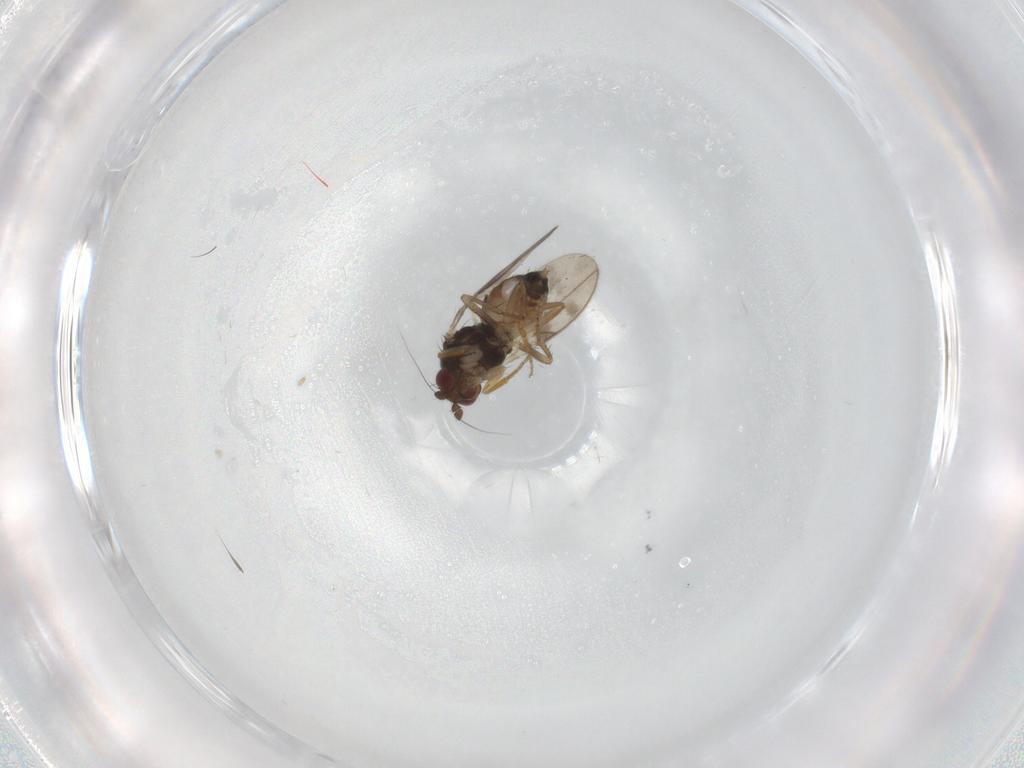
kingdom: Animalia
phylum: Arthropoda
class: Insecta
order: Diptera
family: Sphaeroceridae
